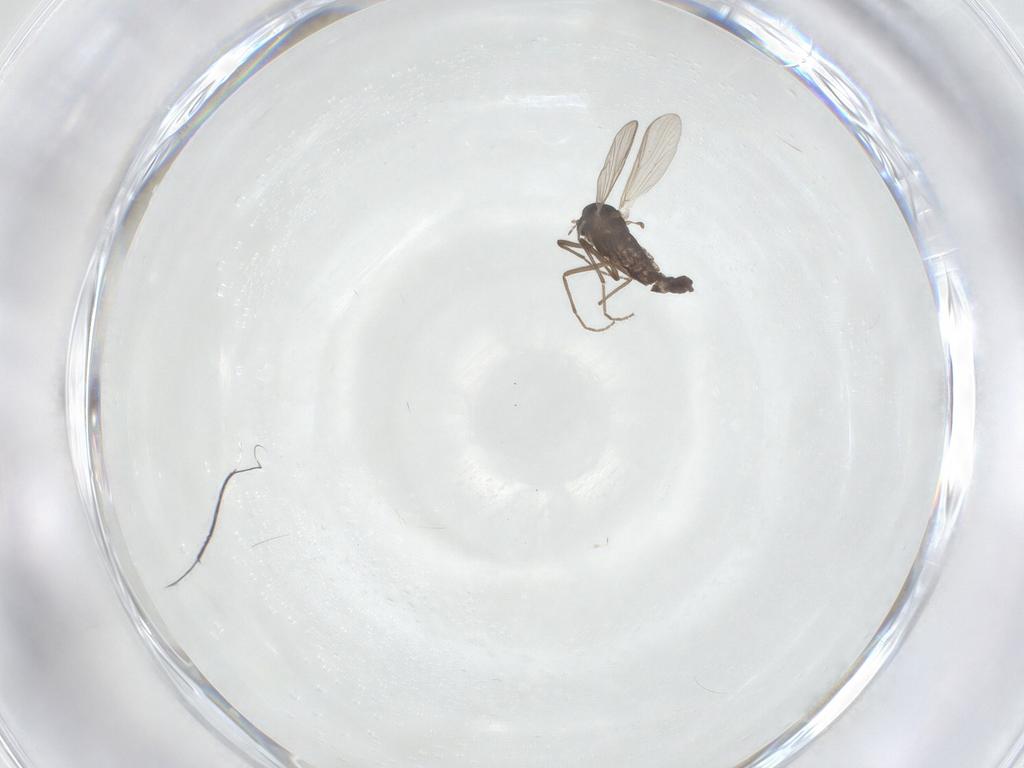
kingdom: Animalia
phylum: Arthropoda
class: Insecta
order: Diptera
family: Chironomidae
